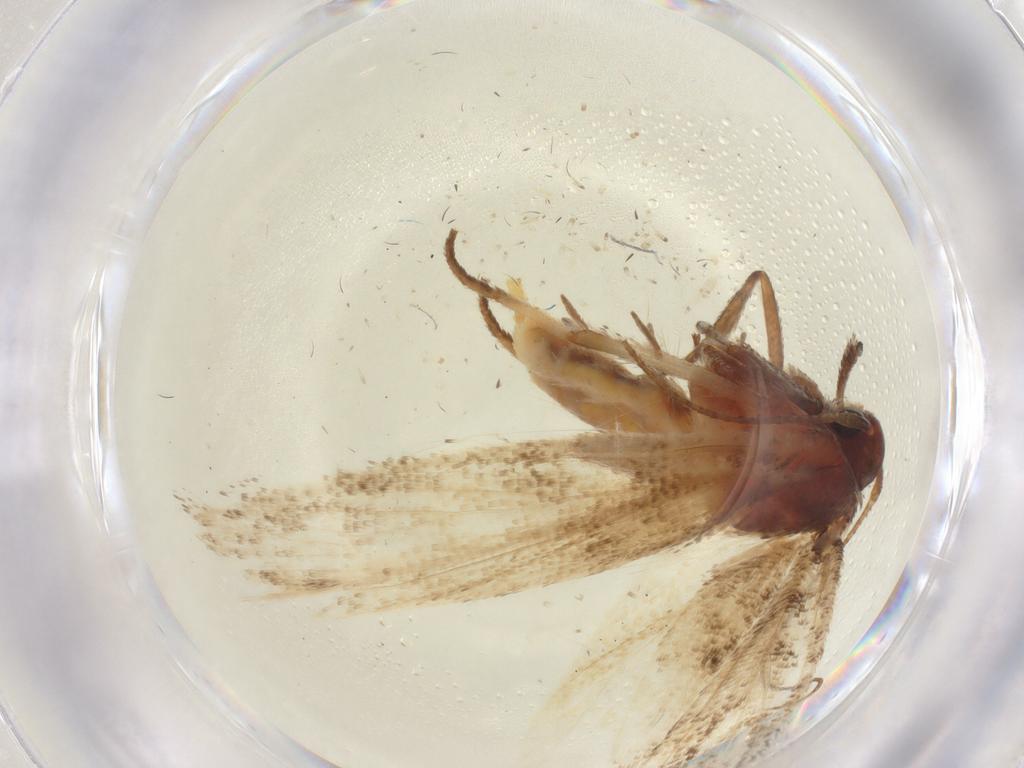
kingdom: Animalia
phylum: Arthropoda
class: Insecta
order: Lepidoptera
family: Cosmopterigidae
